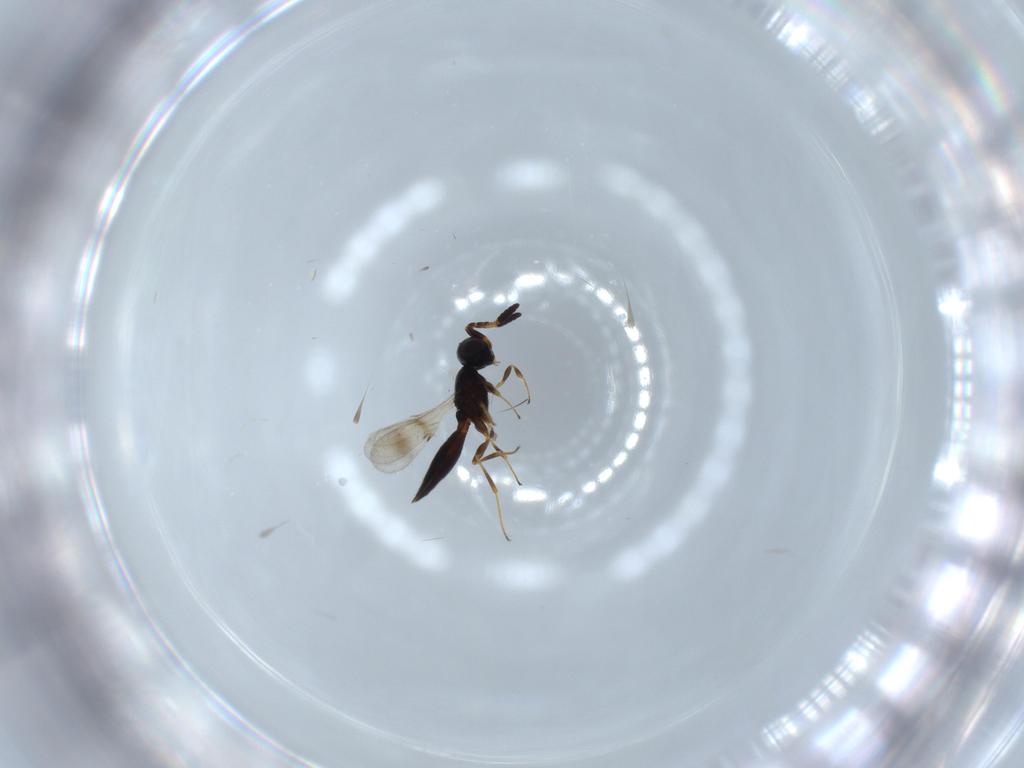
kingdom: Animalia
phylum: Arthropoda
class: Insecta
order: Hymenoptera
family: Scelionidae
